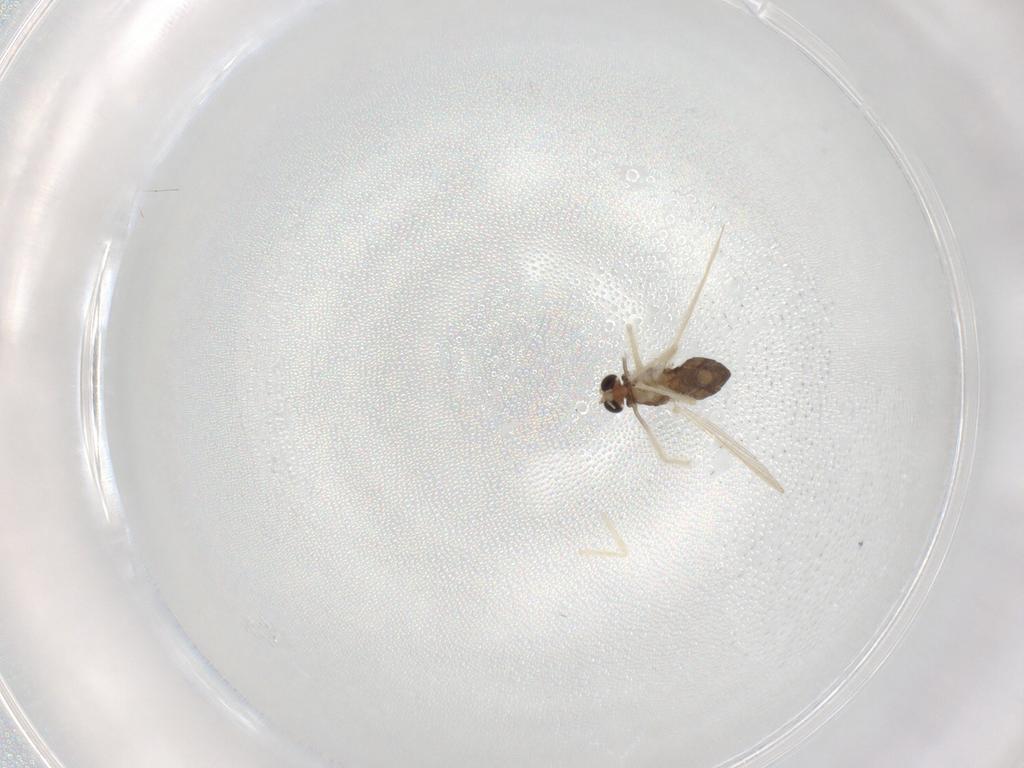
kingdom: Animalia
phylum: Arthropoda
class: Insecta
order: Diptera
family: Chironomidae
